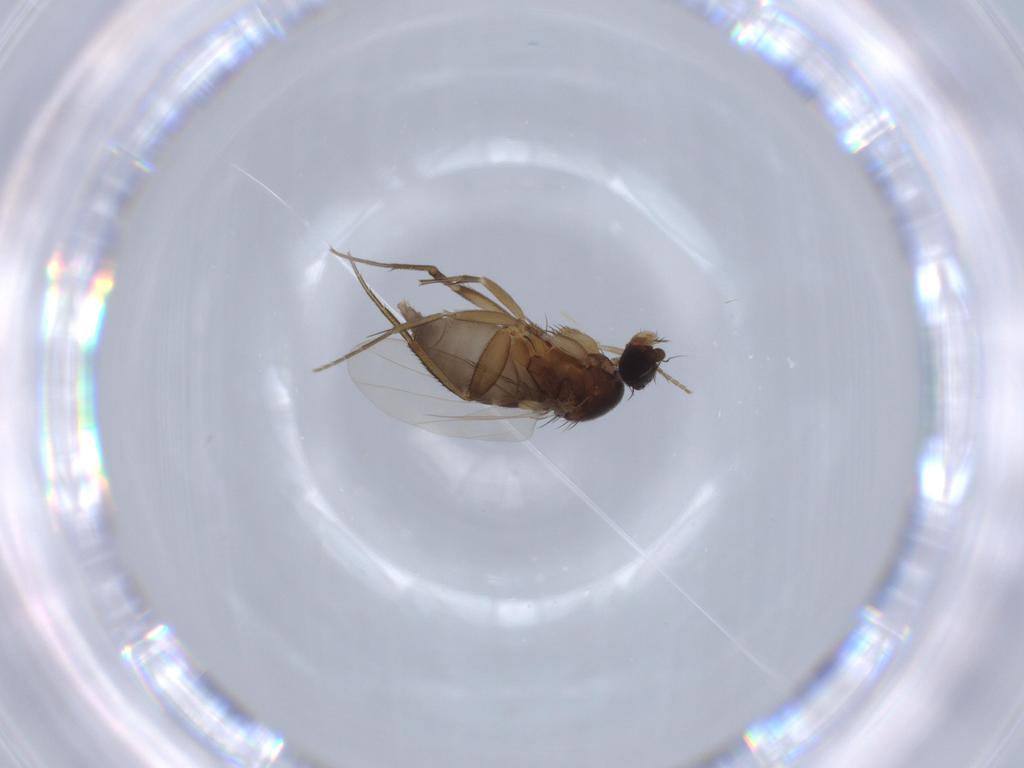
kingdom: Animalia
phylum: Arthropoda
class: Insecta
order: Diptera
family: Phoridae
